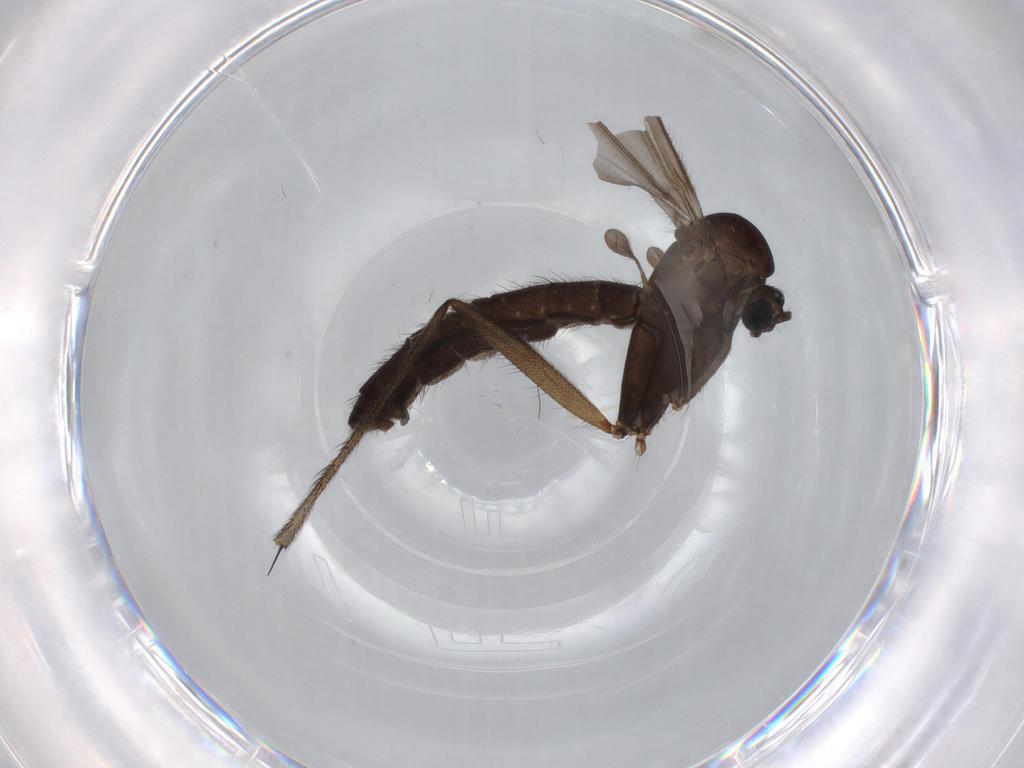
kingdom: Animalia
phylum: Arthropoda
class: Insecta
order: Diptera
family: Ditomyiidae
